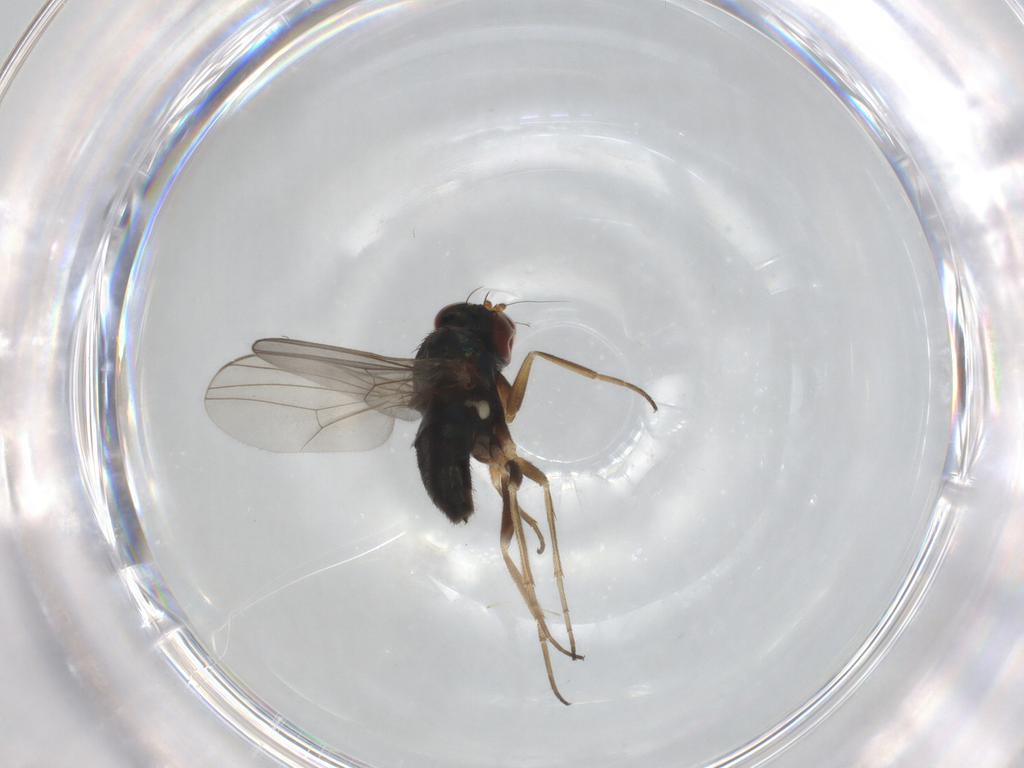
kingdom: Animalia
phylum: Arthropoda
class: Insecta
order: Diptera
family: Cecidomyiidae
